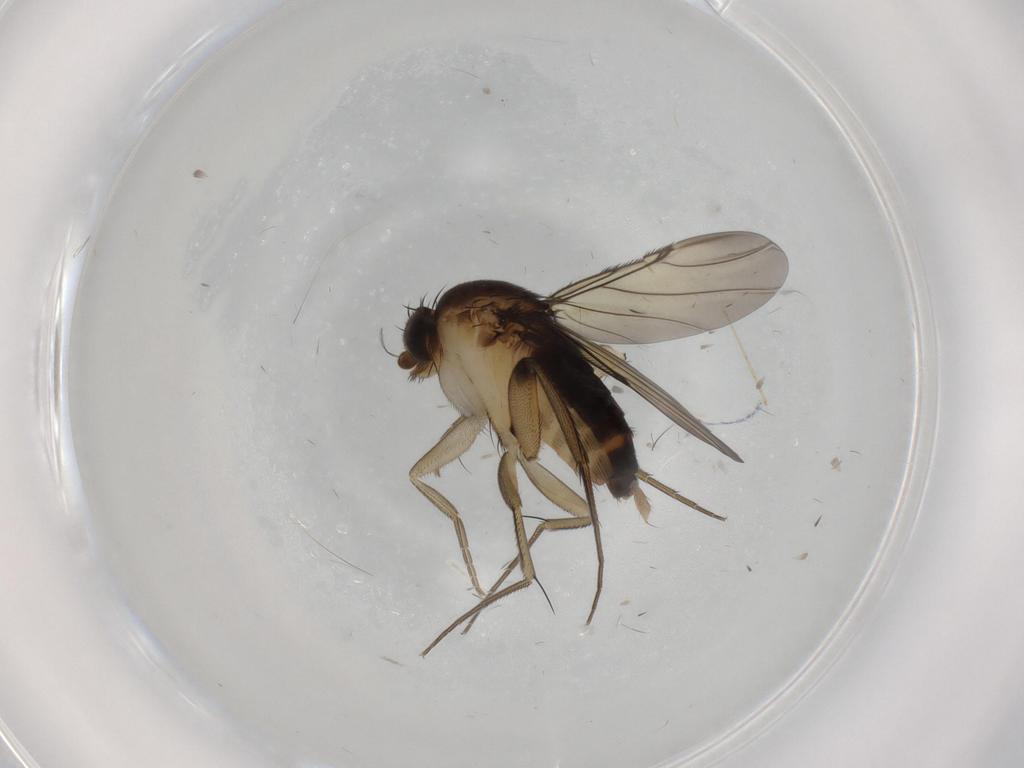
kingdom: Animalia
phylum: Arthropoda
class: Insecta
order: Diptera
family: Phoridae
